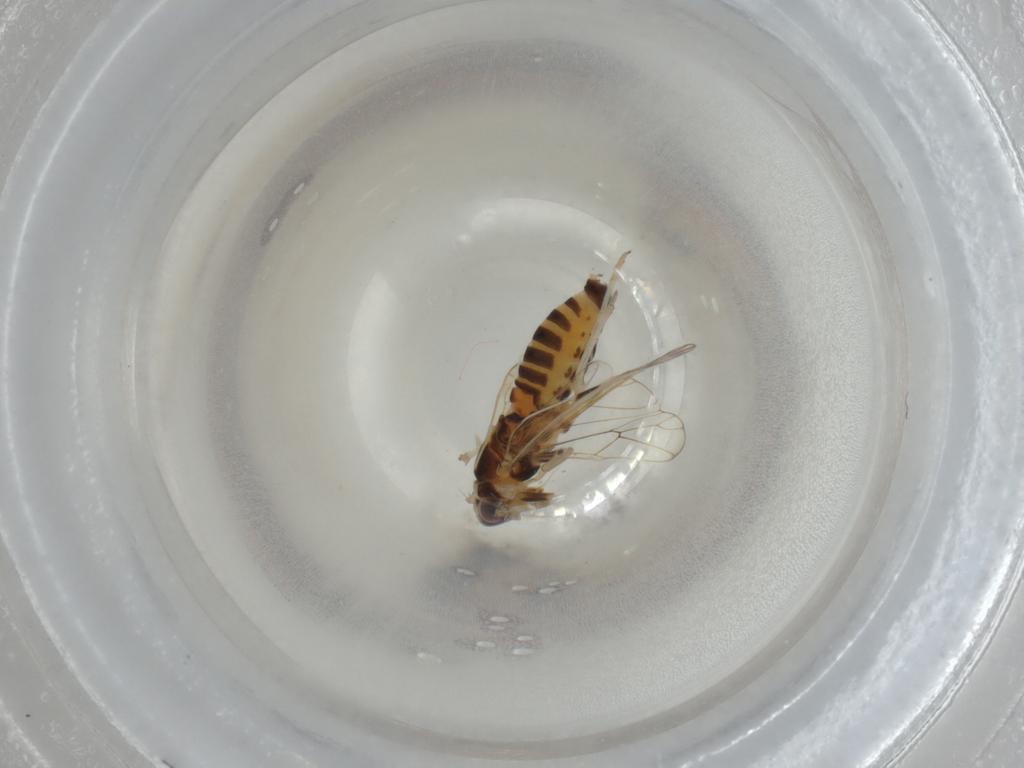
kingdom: Animalia
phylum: Arthropoda
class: Insecta
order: Hemiptera
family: Delphacidae
